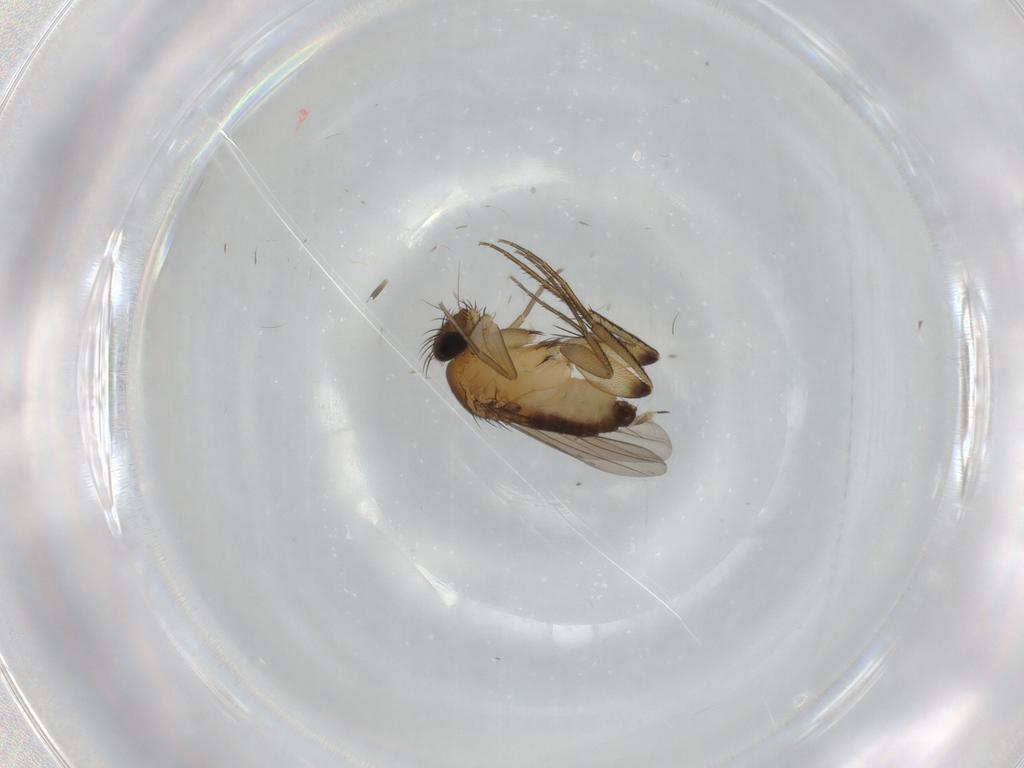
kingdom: Animalia
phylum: Arthropoda
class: Insecta
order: Diptera
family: Phoridae
